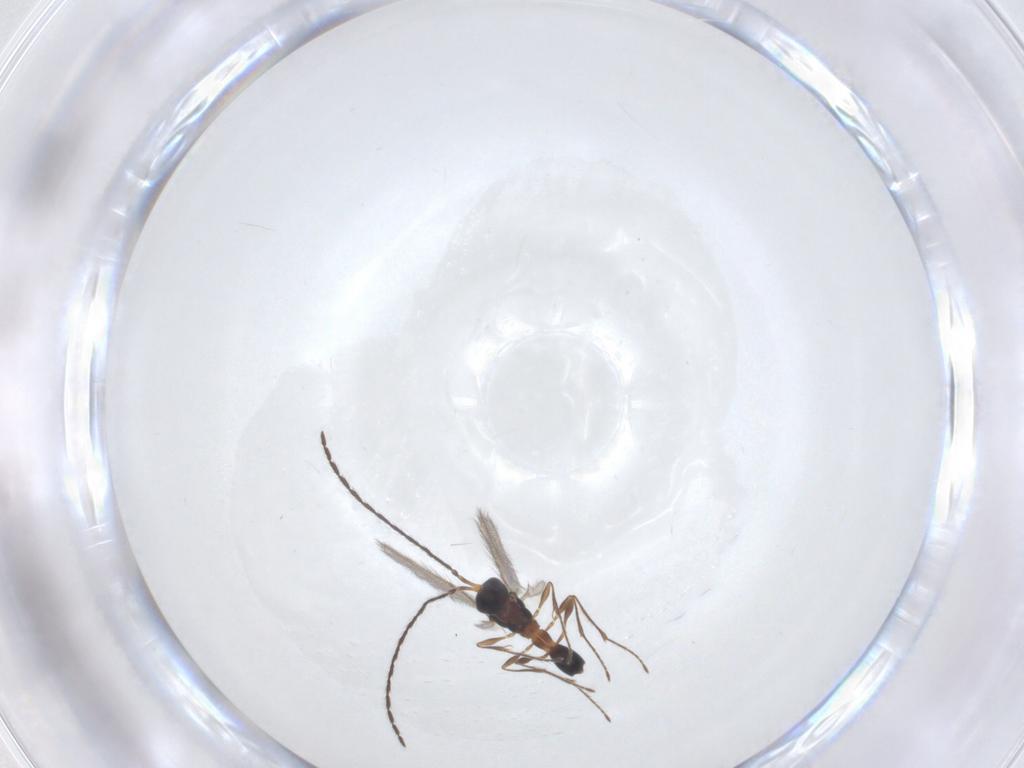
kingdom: Animalia
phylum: Arthropoda
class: Insecta
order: Hymenoptera
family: Diapriidae
